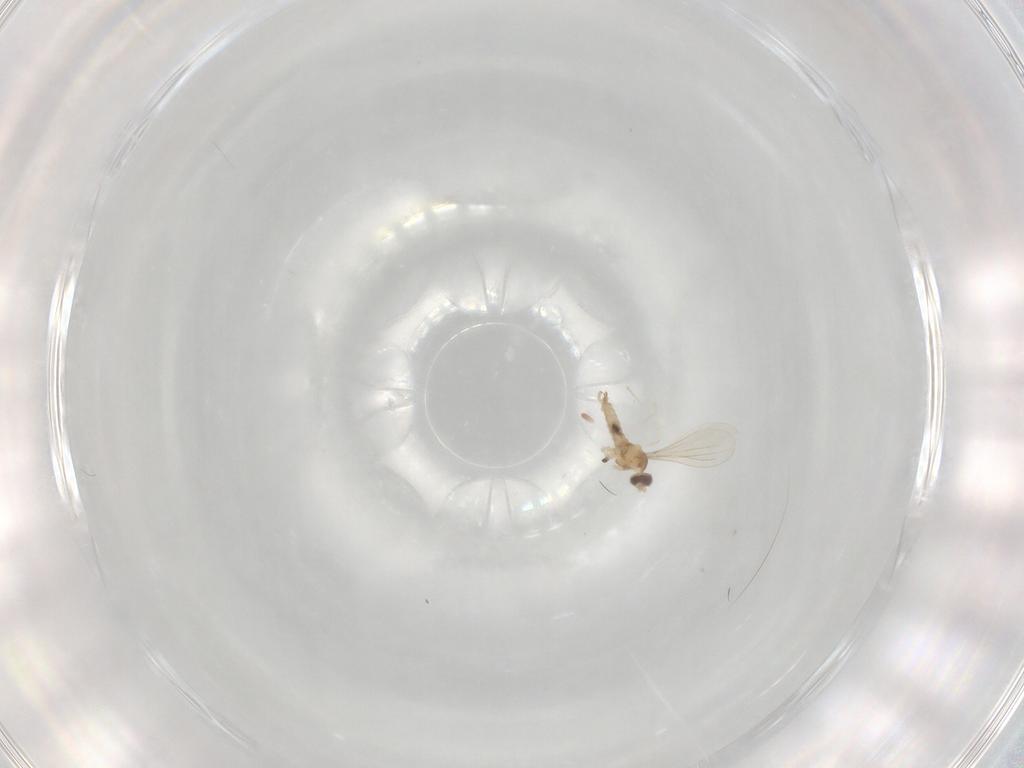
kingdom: Animalia
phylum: Arthropoda
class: Insecta
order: Diptera
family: Cecidomyiidae
